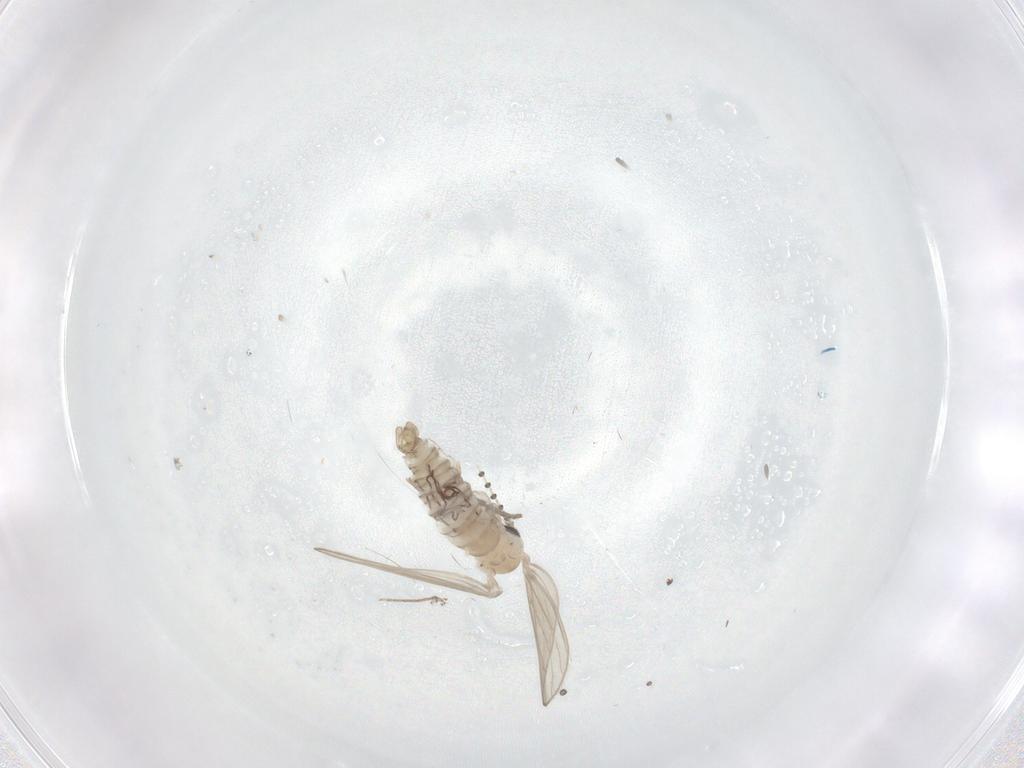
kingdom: Animalia
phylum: Arthropoda
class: Insecta
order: Diptera
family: Psychodidae
